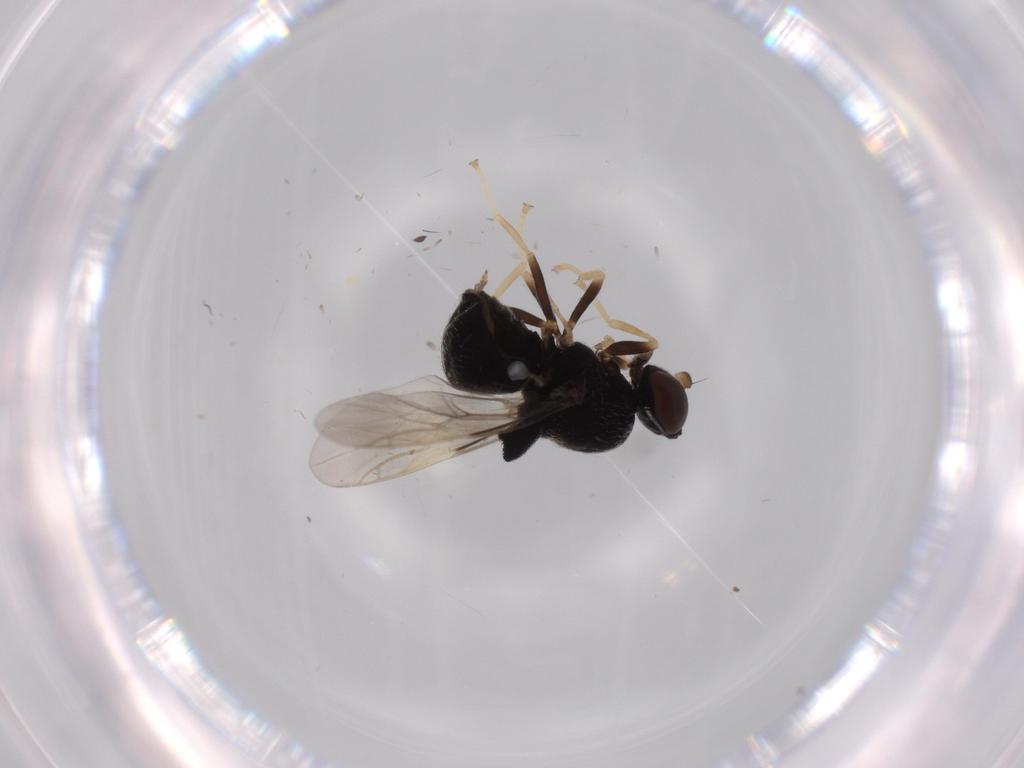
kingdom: Animalia
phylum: Arthropoda
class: Insecta
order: Diptera
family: Stratiomyidae
